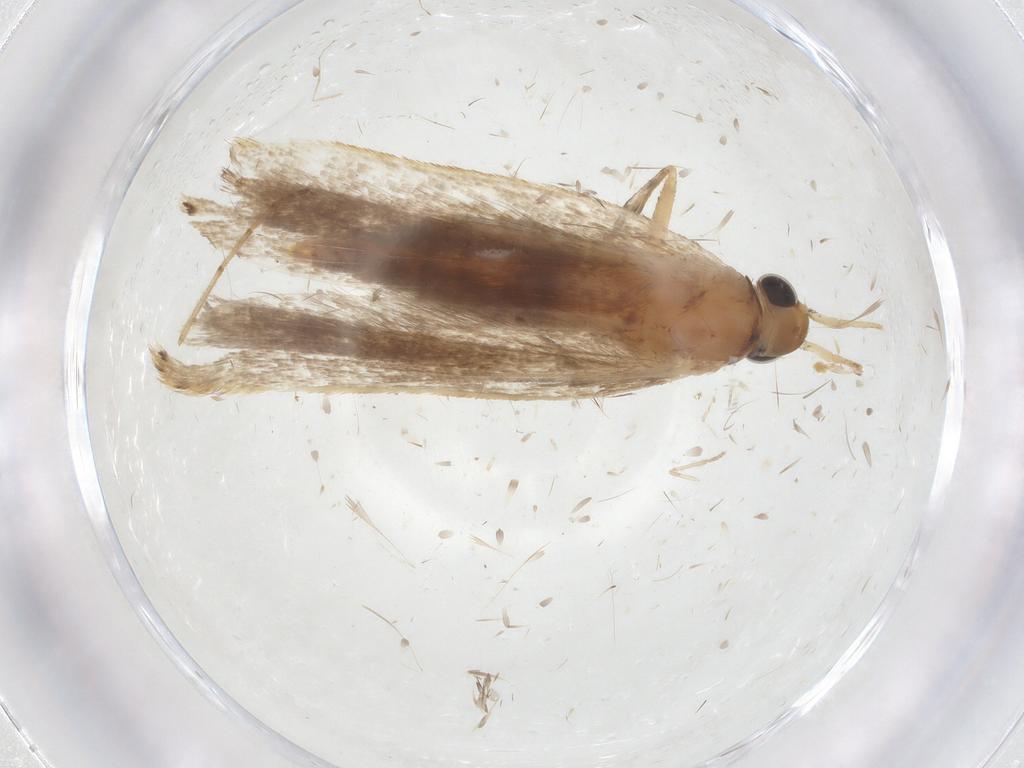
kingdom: Animalia
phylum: Arthropoda
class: Insecta
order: Lepidoptera
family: Gelechiidae
